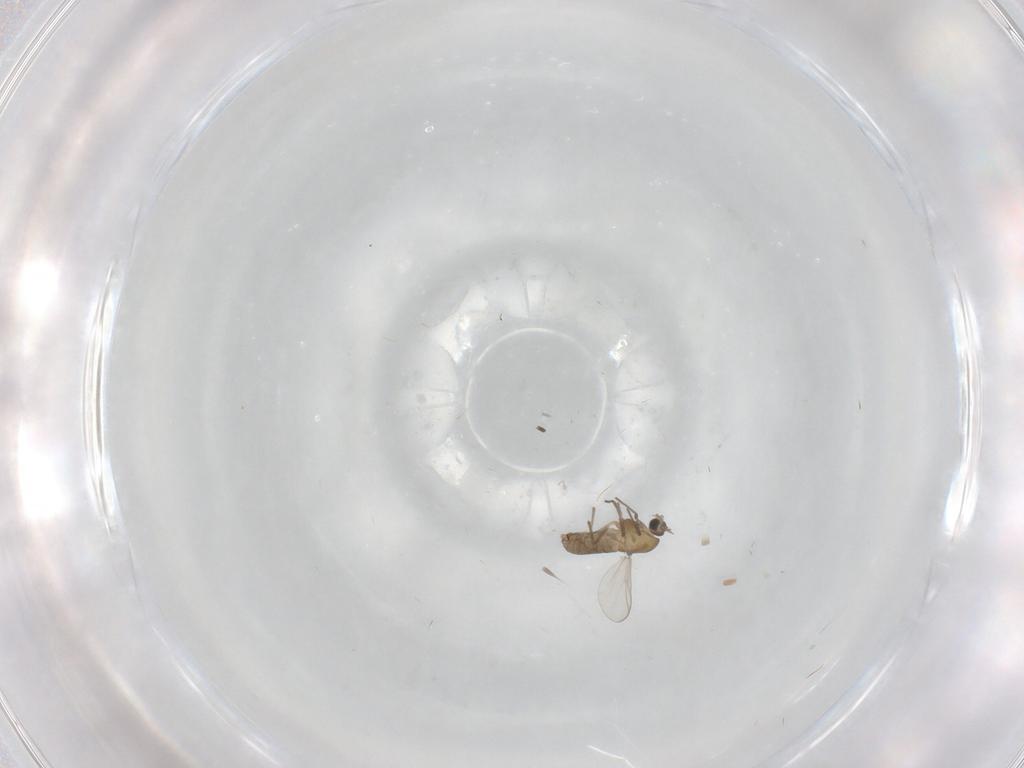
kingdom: Animalia
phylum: Arthropoda
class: Insecta
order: Diptera
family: Chironomidae
